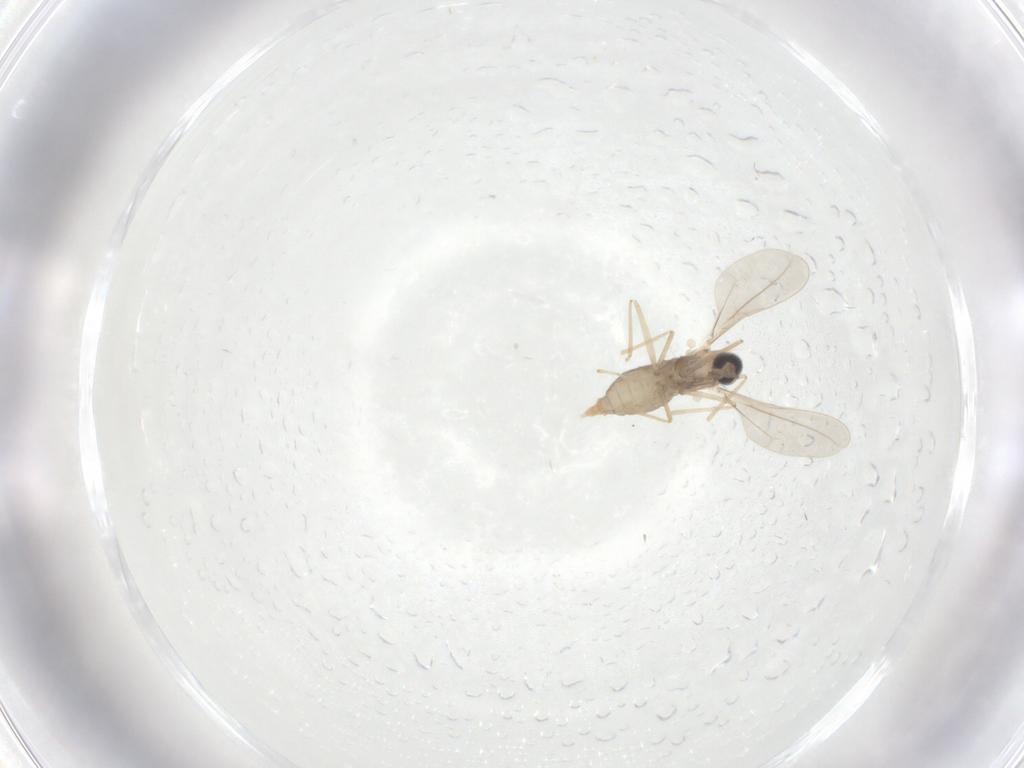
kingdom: Animalia
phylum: Arthropoda
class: Insecta
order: Diptera
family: Cecidomyiidae
